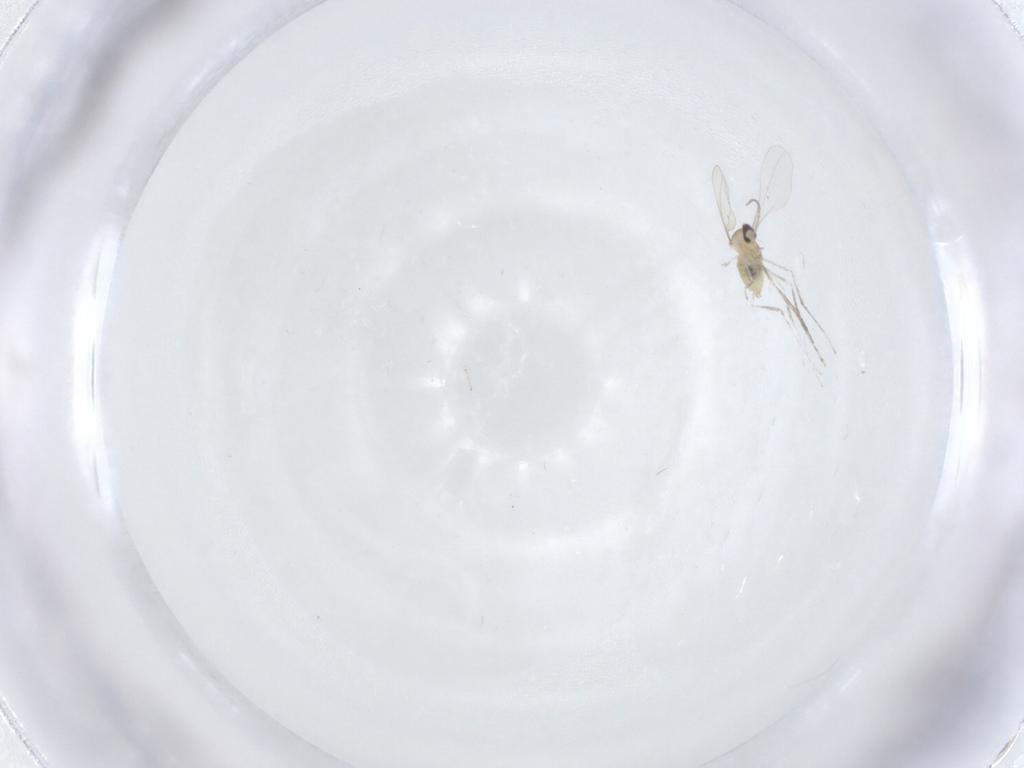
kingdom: Animalia
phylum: Arthropoda
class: Insecta
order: Diptera
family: Cecidomyiidae
